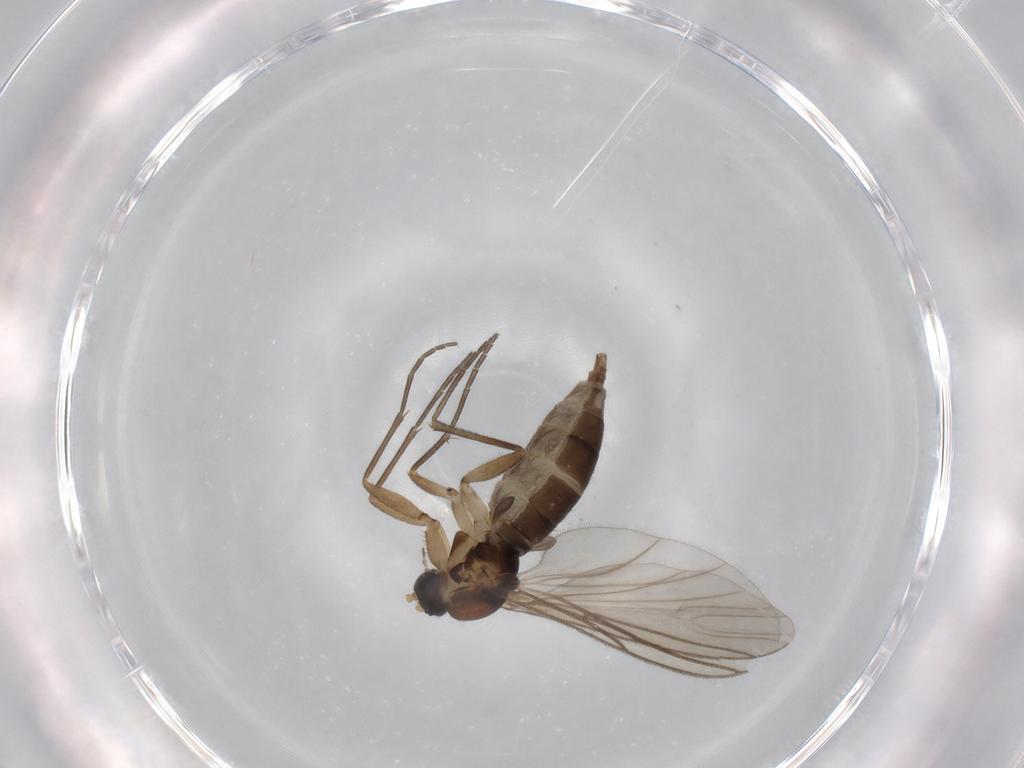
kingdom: Animalia
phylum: Arthropoda
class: Insecta
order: Diptera
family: Sciaridae
